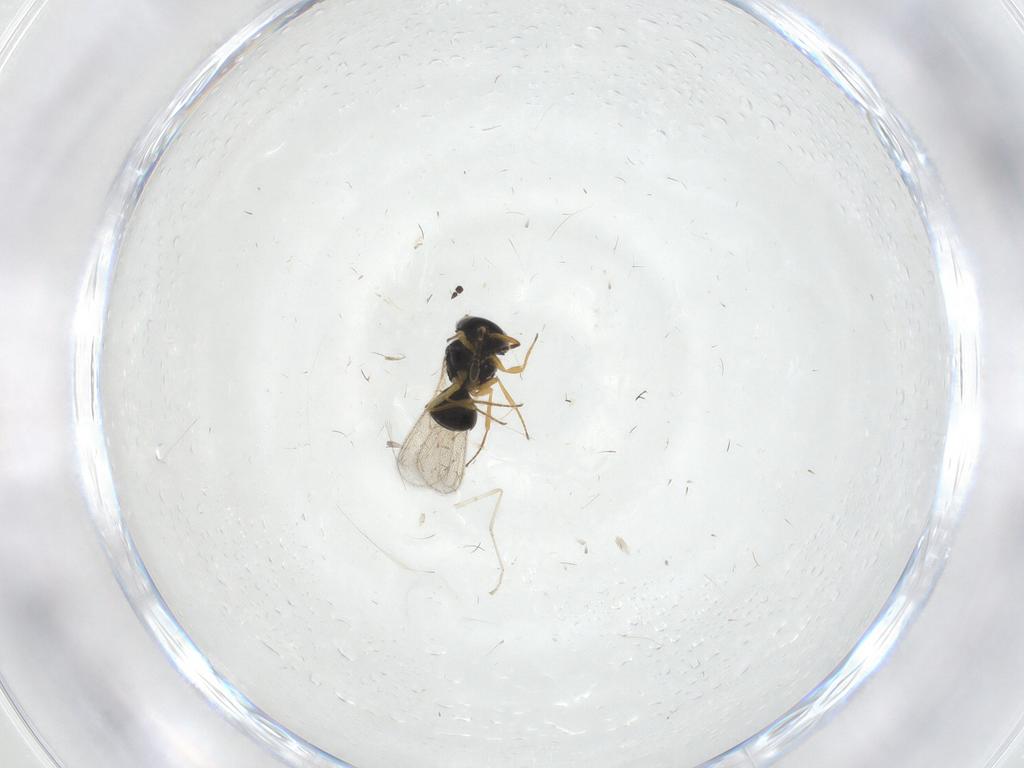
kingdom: Animalia
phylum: Arthropoda
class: Insecta
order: Hymenoptera
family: Scelionidae
